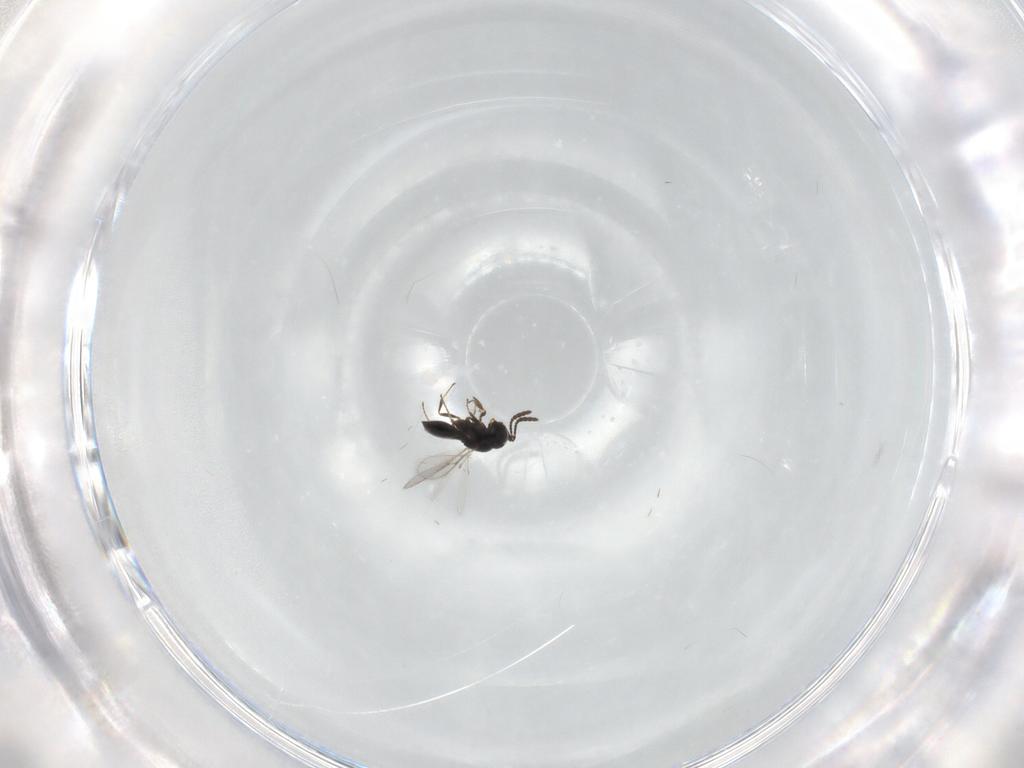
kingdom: Animalia
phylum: Arthropoda
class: Insecta
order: Hymenoptera
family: Scelionidae
